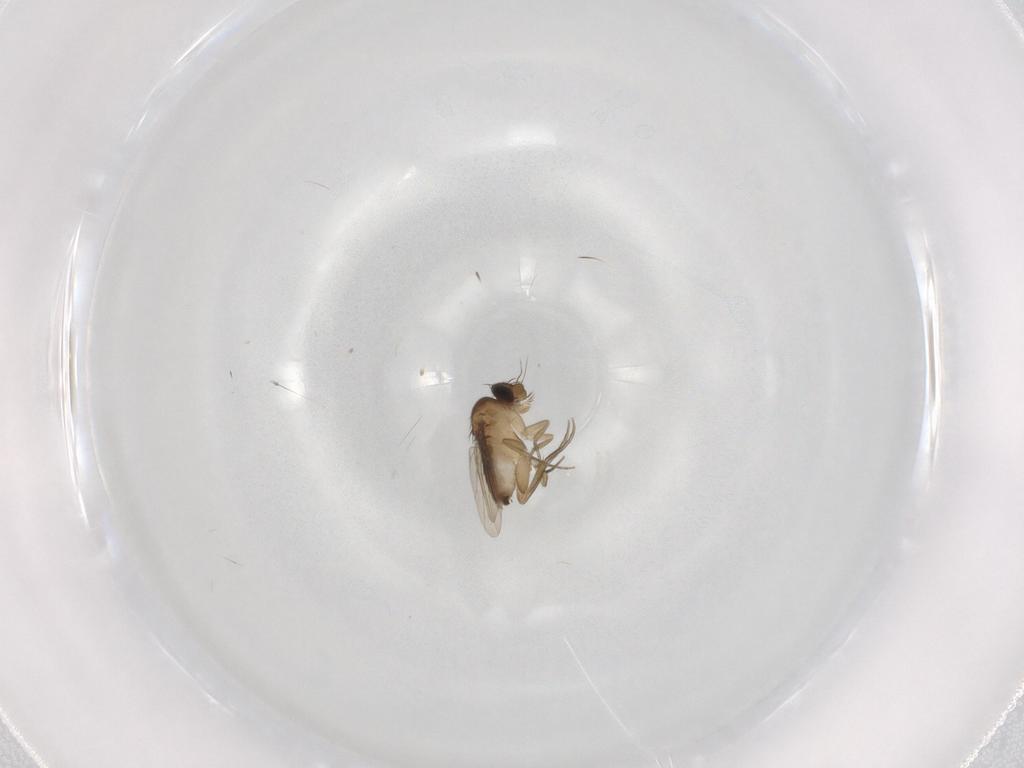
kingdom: Animalia
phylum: Arthropoda
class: Insecta
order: Diptera
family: Phoridae
